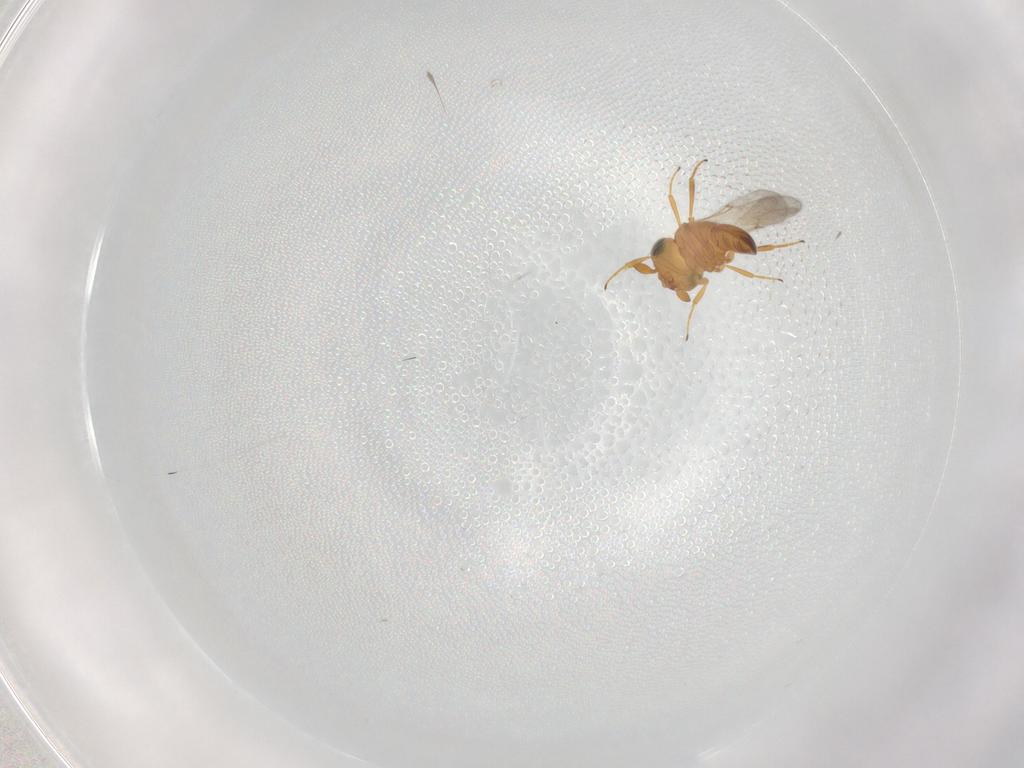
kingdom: Animalia
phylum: Arthropoda
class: Insecta
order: Hymenoptera
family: Scelionidae
